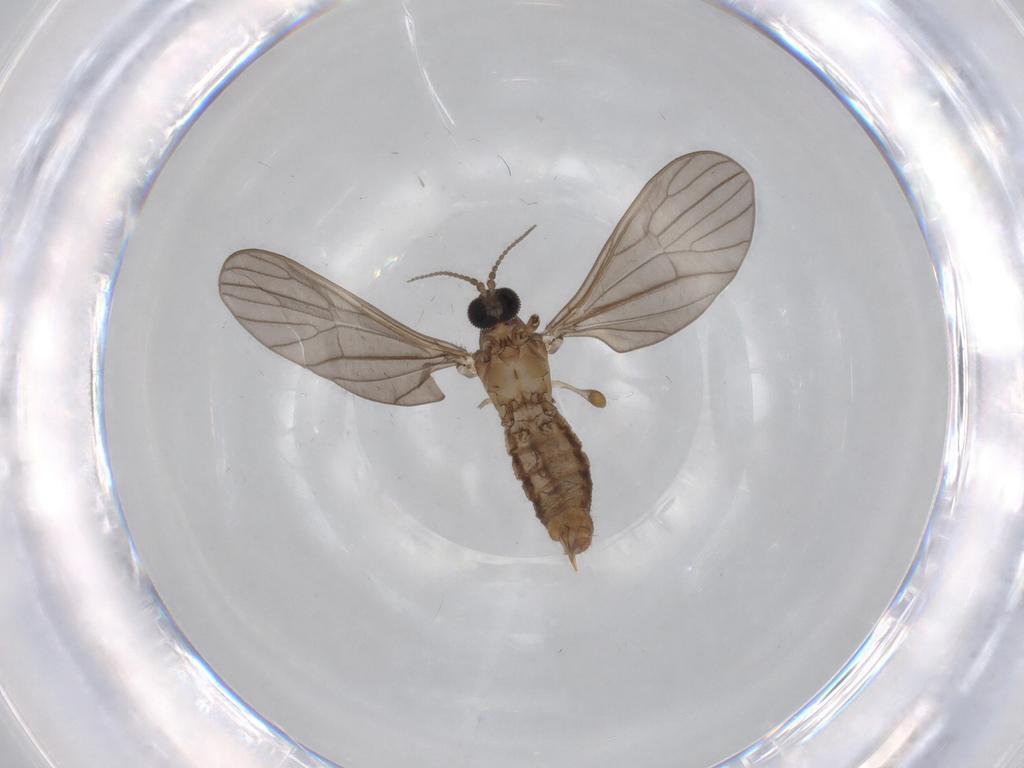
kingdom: Animalia
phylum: Arthropoda
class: Insecta
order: Diptera
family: Limoniidae
